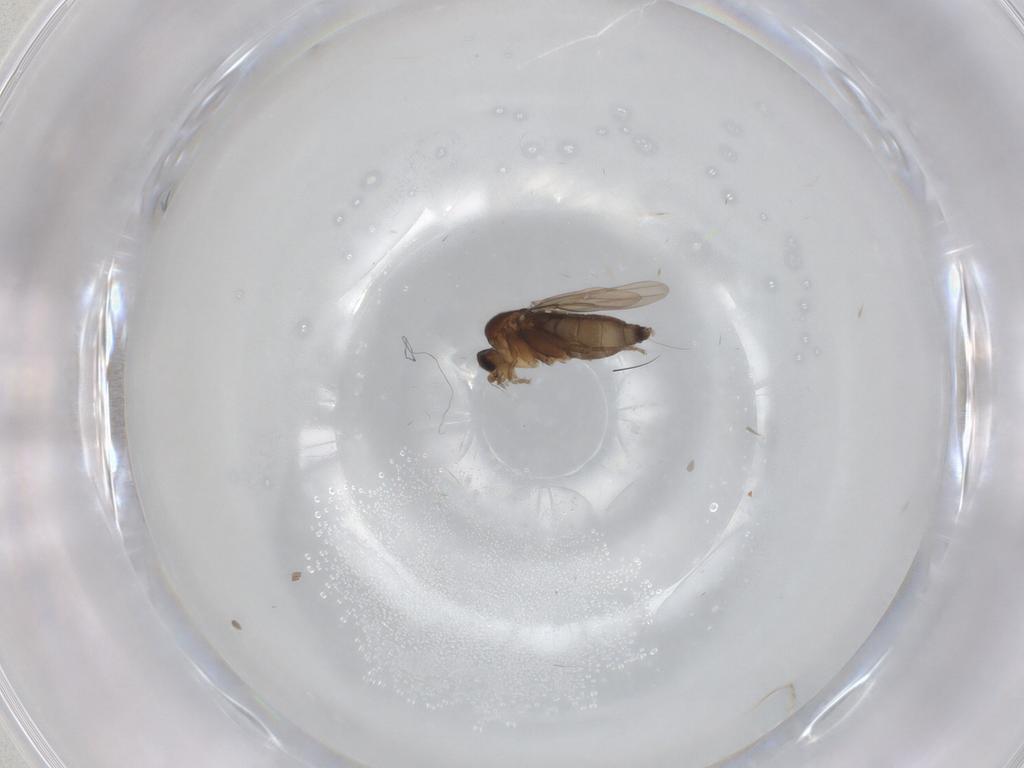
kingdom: Animalia
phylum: Arthropoda
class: Insecta
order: Diptera
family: Phoridae
